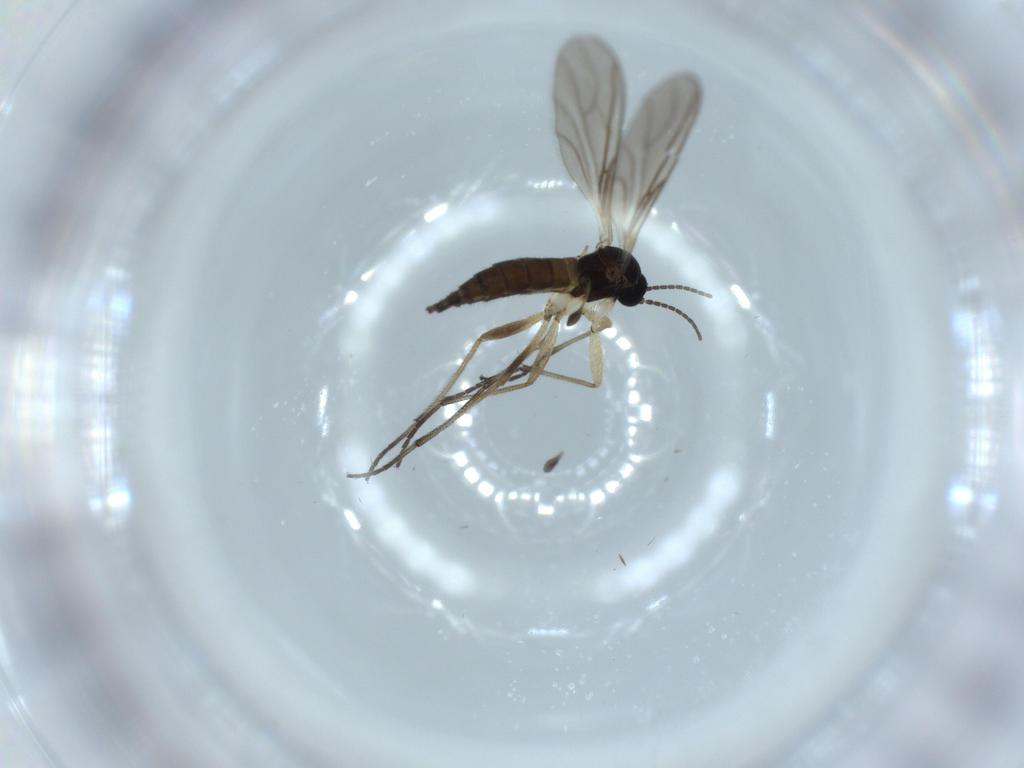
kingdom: Animalia
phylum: Arthropoda
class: Insecta
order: Diptera
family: Sciaridae
